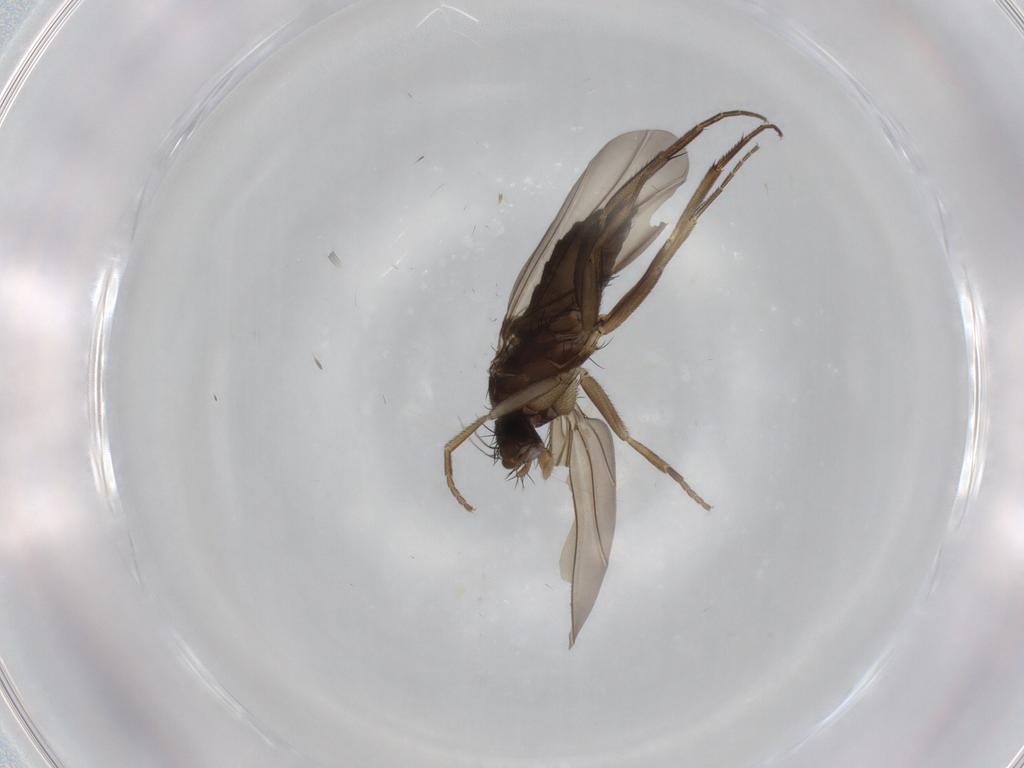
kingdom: Animalia
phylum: Arthropoda
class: Insecta
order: Diptera
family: Phoridae
